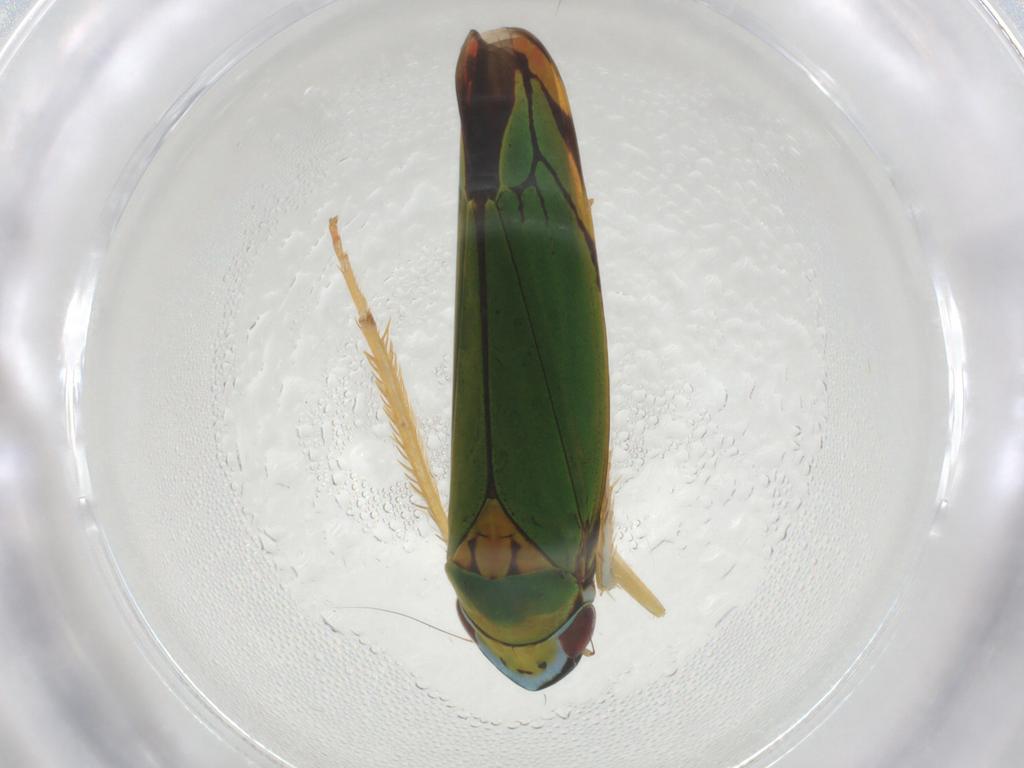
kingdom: Animalia
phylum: Arthropoda
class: Insecta
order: Hemiptera
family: Cicadellidae
